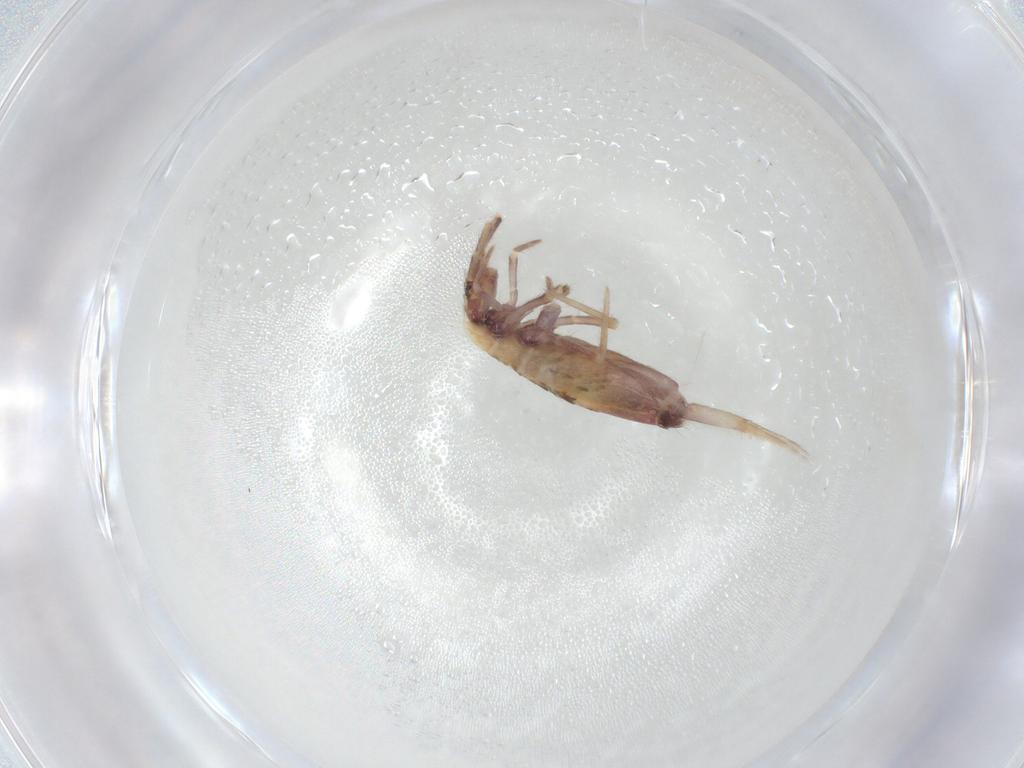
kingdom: Animalia
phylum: Arthropoda
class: Collembola
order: Entomobryomorpha
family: Entomobryidae
